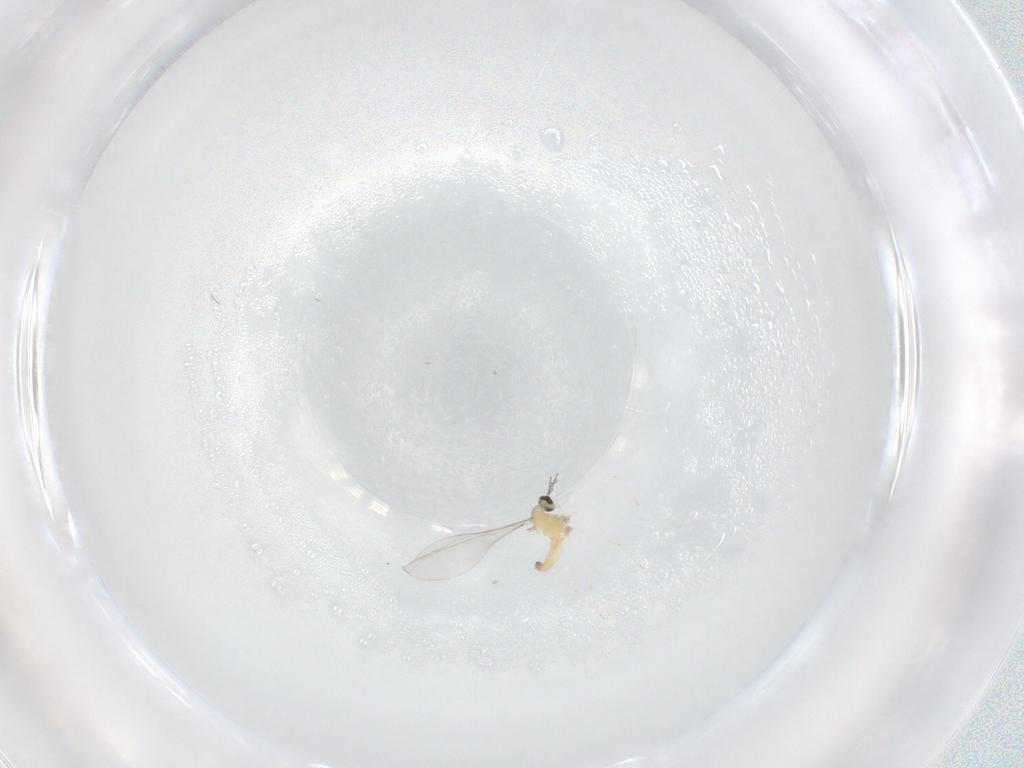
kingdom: Animalia
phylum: Arthropoda
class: Insecta
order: Diptera
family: Cecidomyiidae
